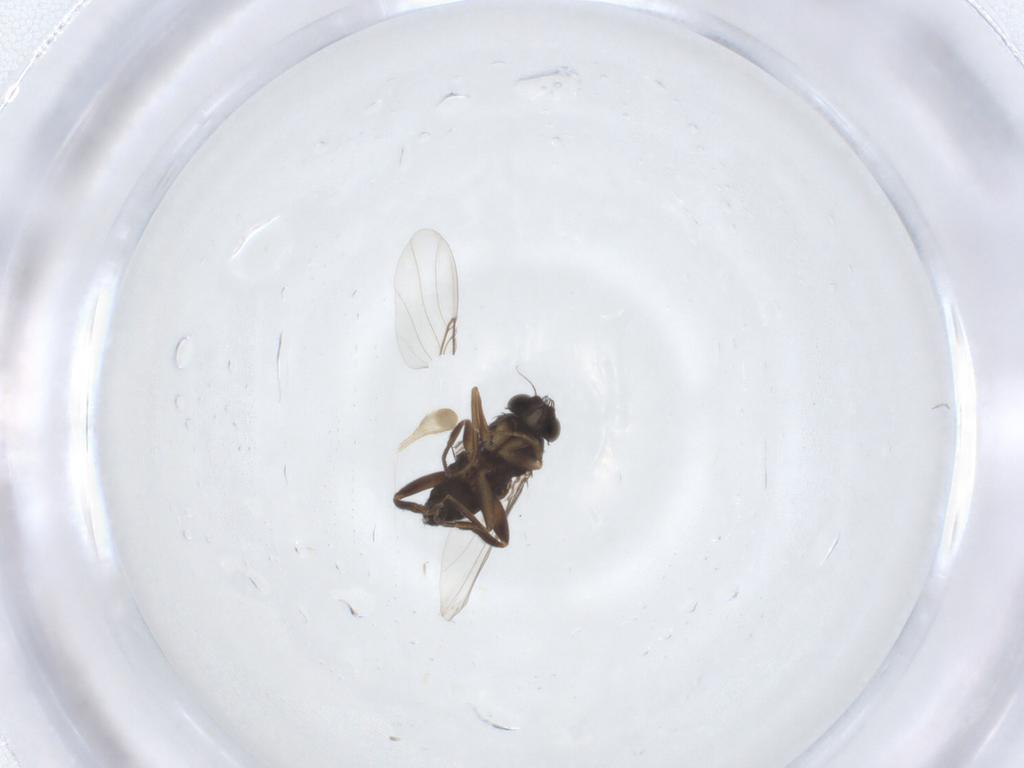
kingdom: Animalia
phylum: Arthropoda
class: Insecta
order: Diptera
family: Phoridae
